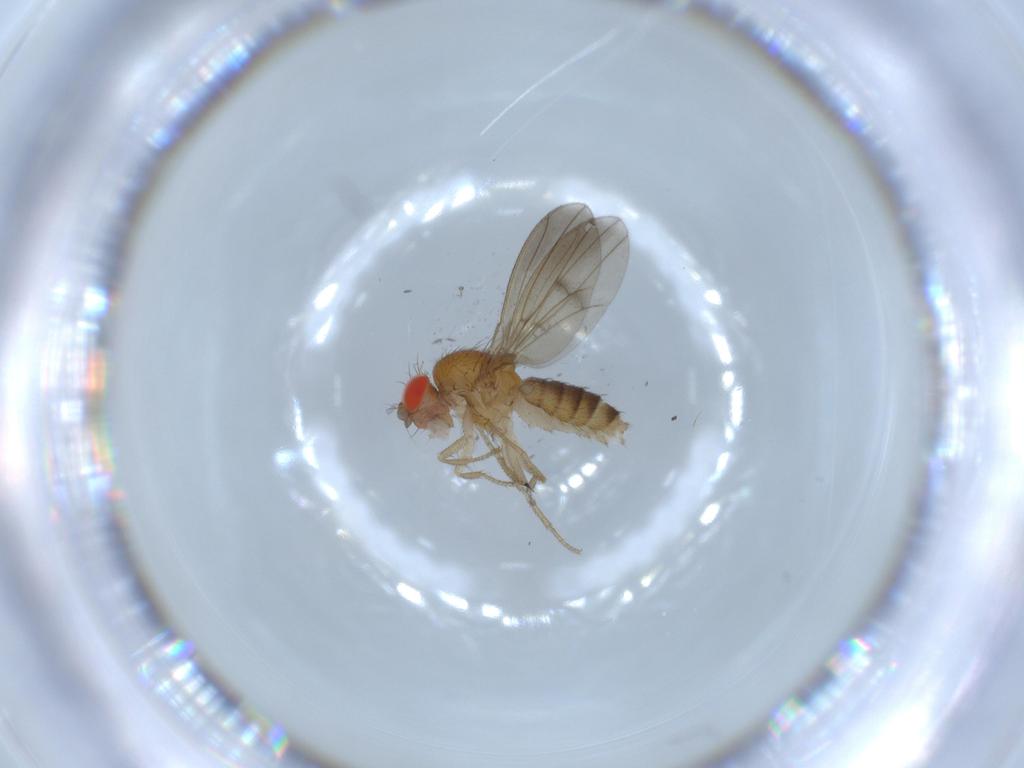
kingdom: Animalia
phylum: Arthropoda
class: Insecta
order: Diptera
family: Drosophilidae
